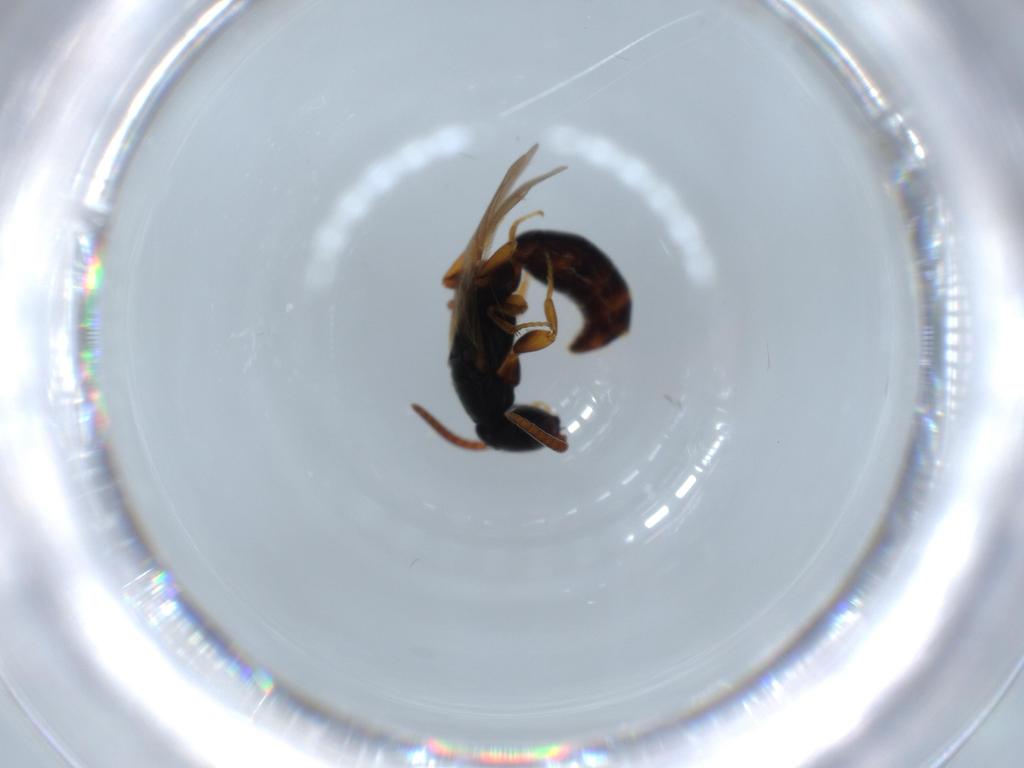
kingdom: Animalia
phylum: Arthropoda
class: Insecta
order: Hymenoptera
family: Bethylidae
